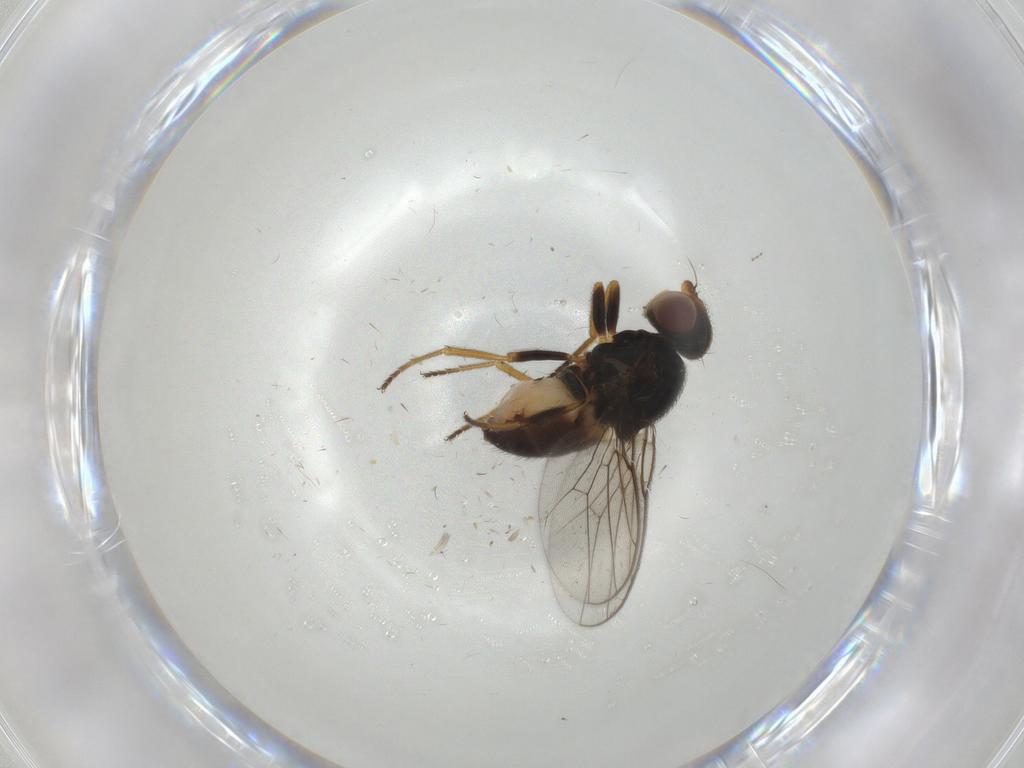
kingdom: Animalia
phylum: Arthropoda
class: Insecta
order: Diptera
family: Chloropidae
